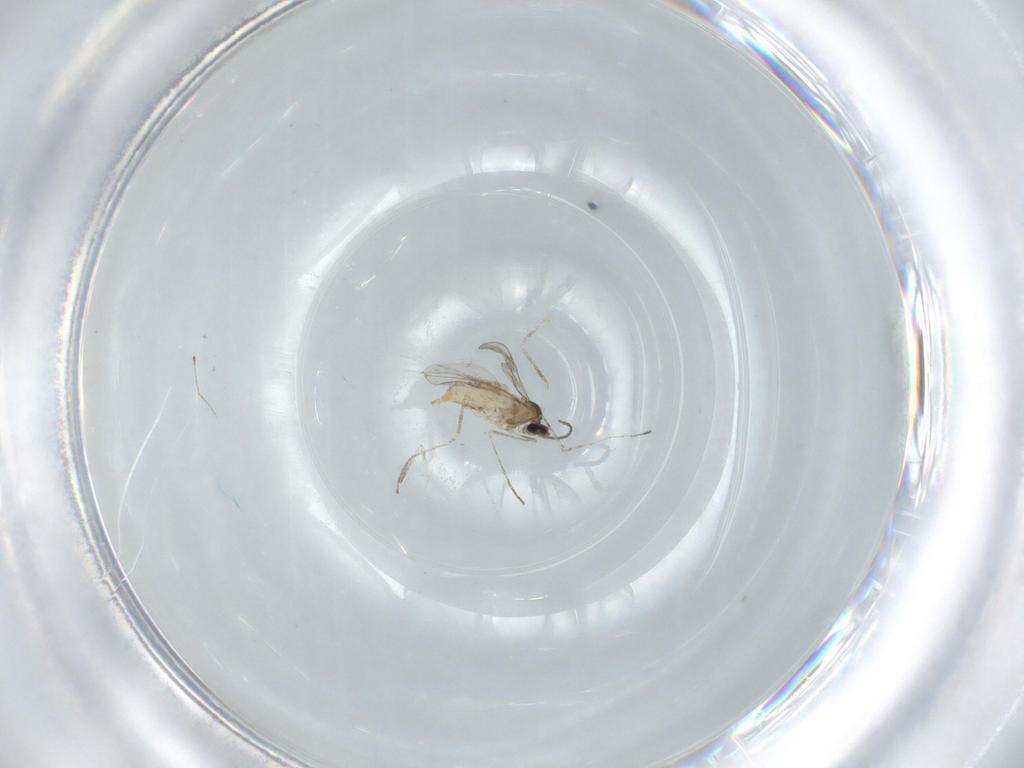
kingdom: Animalia
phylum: Arthropoda
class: Insecta
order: Diptera
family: Cecidomyiidae
